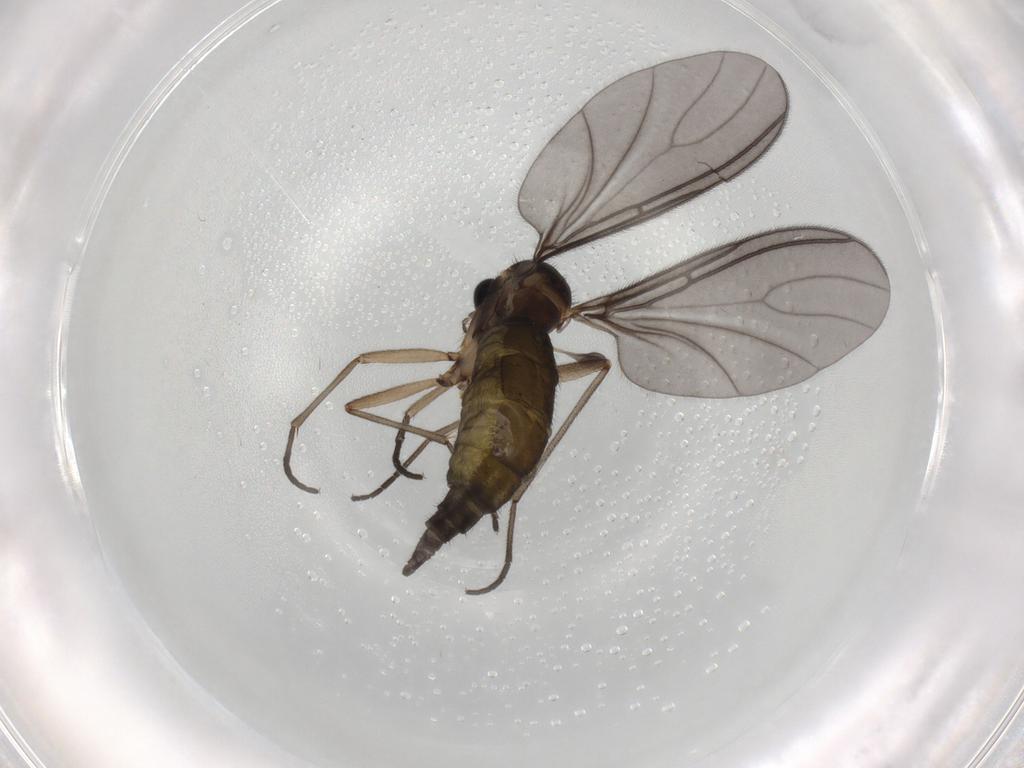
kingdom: Animalia
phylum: Arthropoda
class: Insecta
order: Diptera
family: Sciaridae
